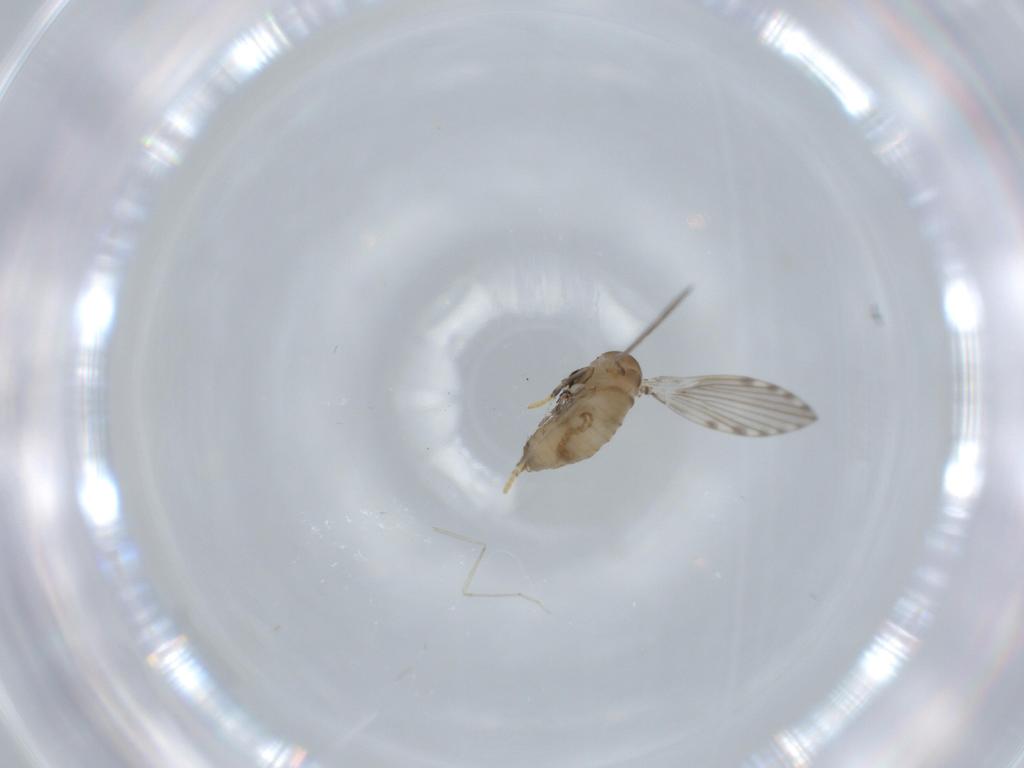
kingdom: Animalia
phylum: Arthropoda
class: Insecta
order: Diptera
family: Psychodidae
